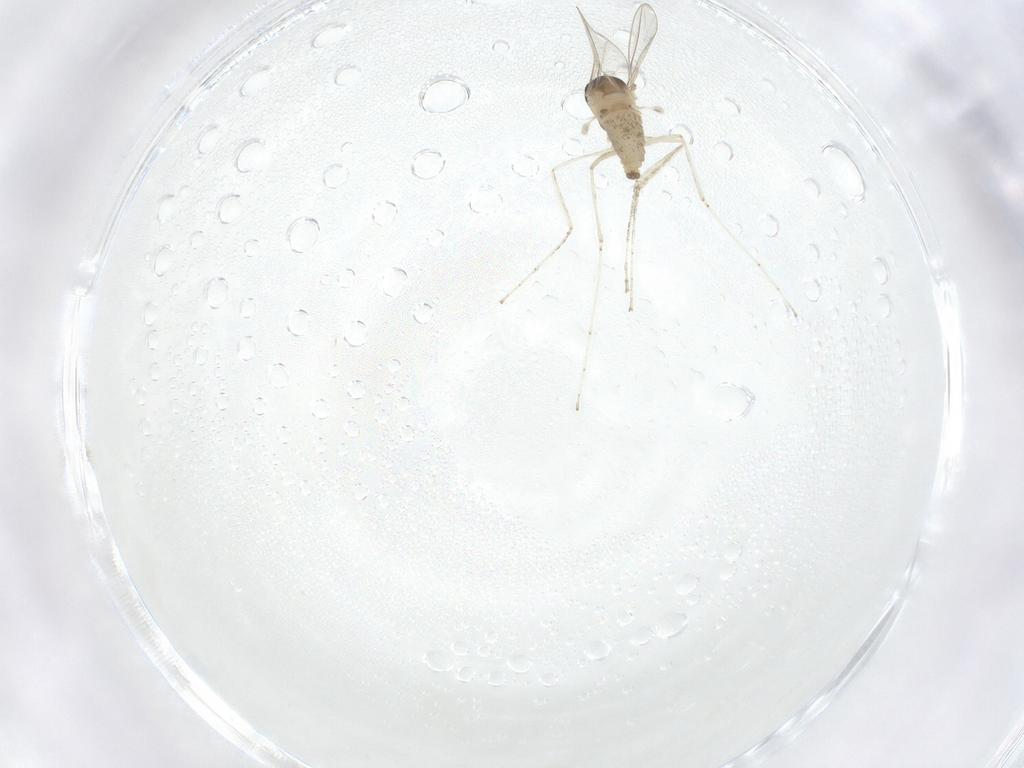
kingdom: Animalia
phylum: Arthropoda
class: Insecta
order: Diptera
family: Cecidomyiidae
